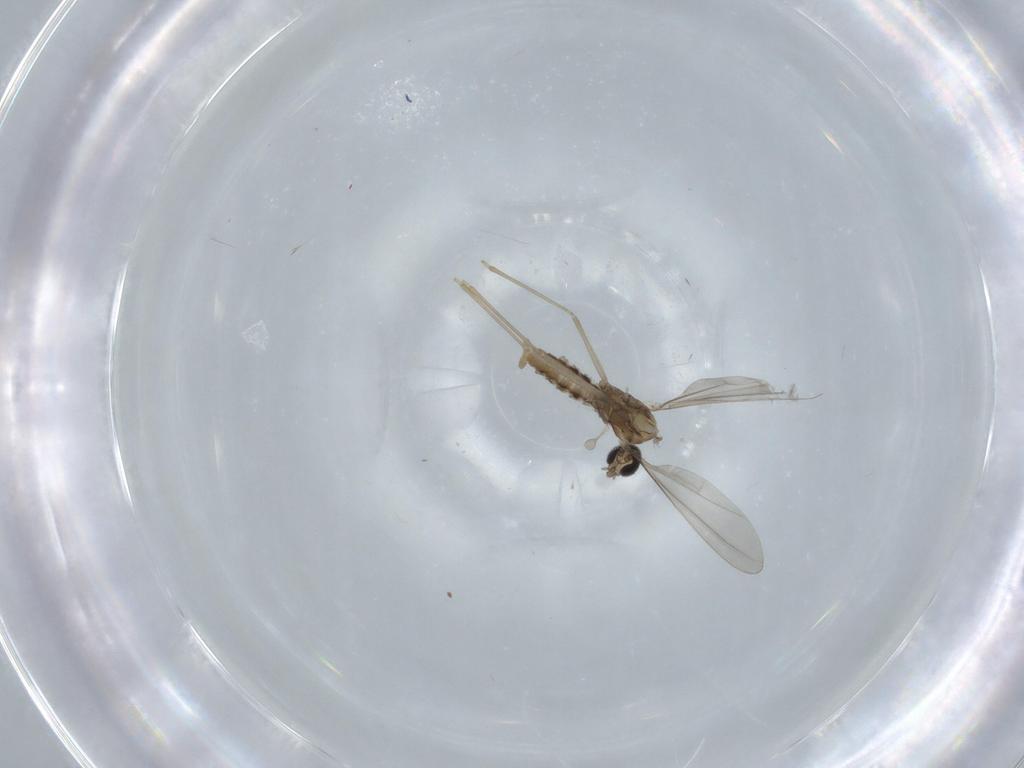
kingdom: Animalia
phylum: Arthropoda
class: Insecta
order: Diptera
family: Cecidomyiidae
